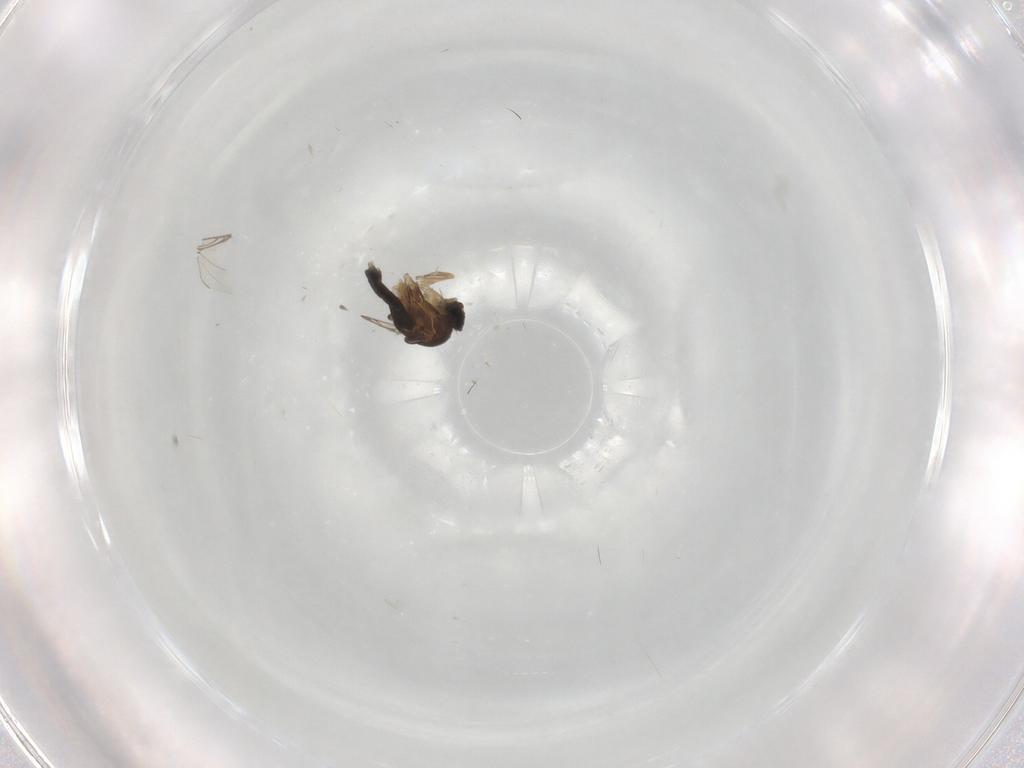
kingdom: Animalia
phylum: Arthropoda
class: Insecta
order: Diptera
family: Phoridae
